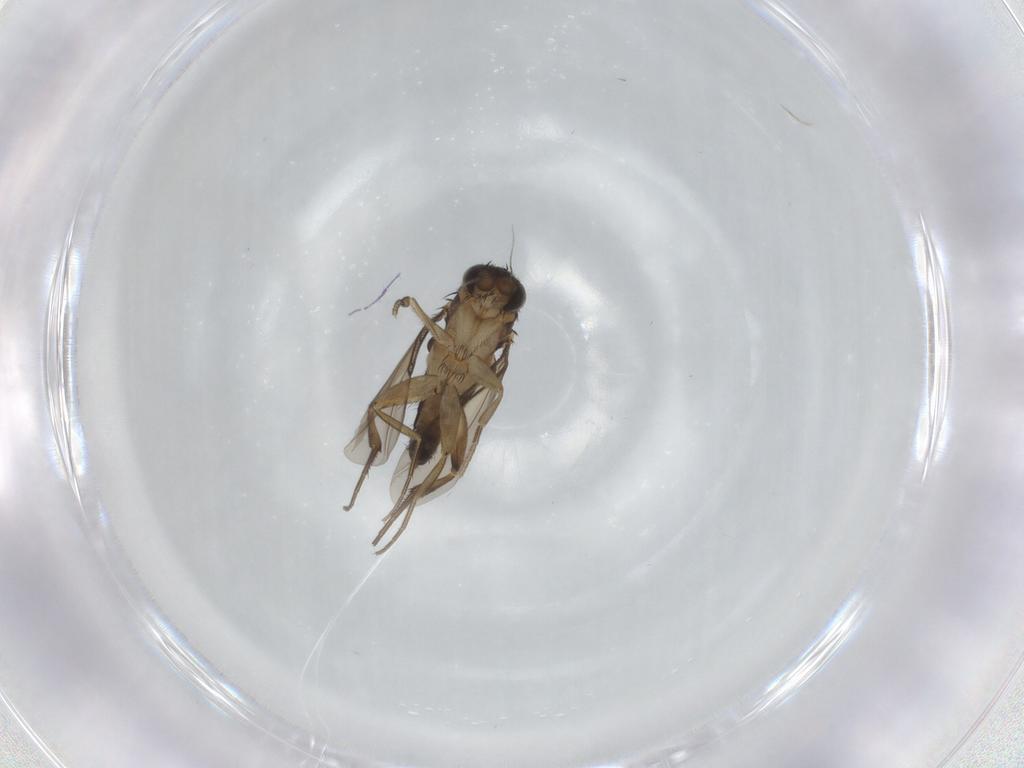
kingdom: Animalia
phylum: Arthropoda
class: Insecta
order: Diptera
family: Phoridae
